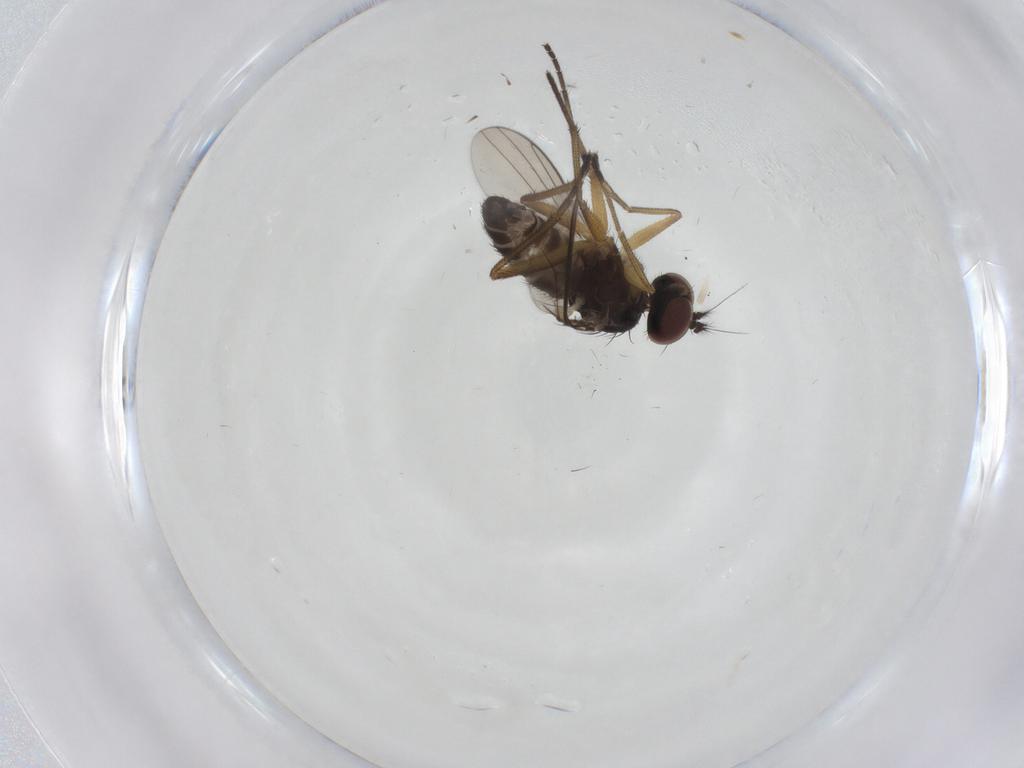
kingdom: Animalia
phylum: Arthropoda
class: Insecta
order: Diptera
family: Dolichopodidae
